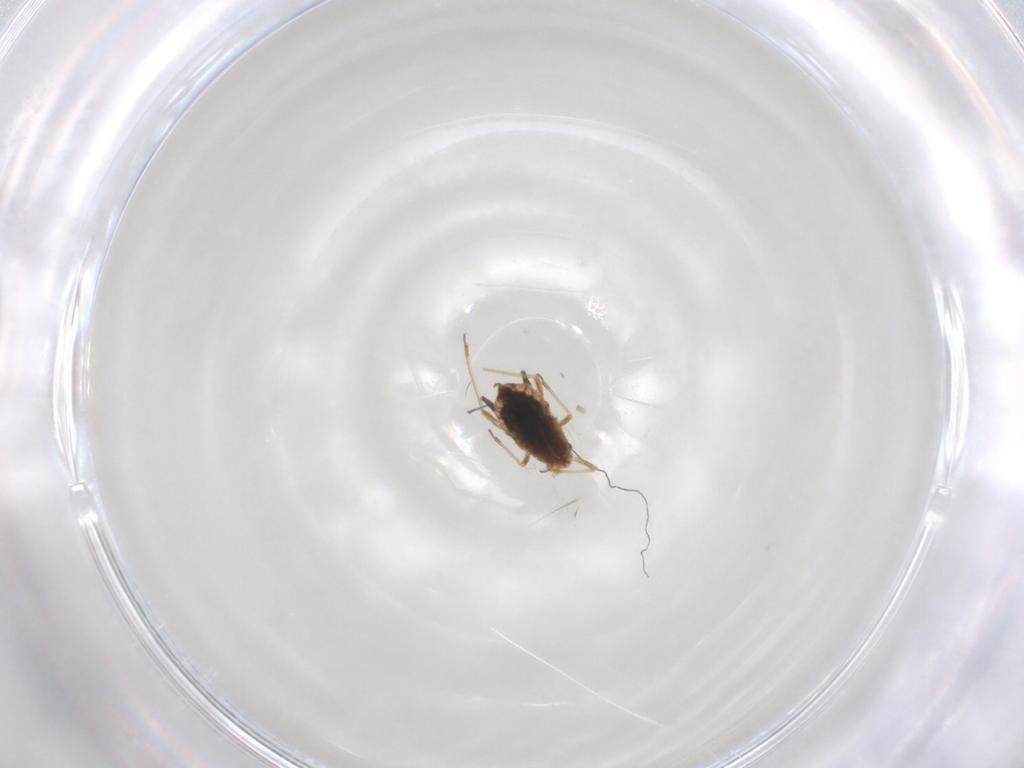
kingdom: Animalia
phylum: Arthropoda
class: Insecta
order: Hemiptera
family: Aphididae
